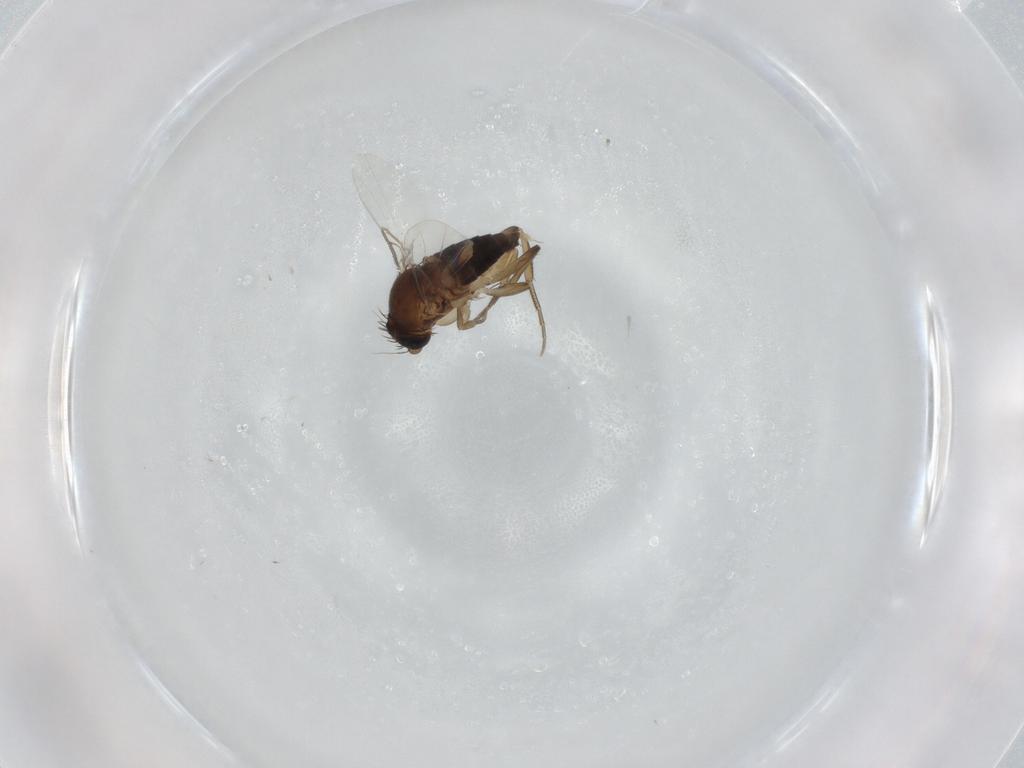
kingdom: Animalia
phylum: Arthropoda
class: Insecta
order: Diptera
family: Phoridae
